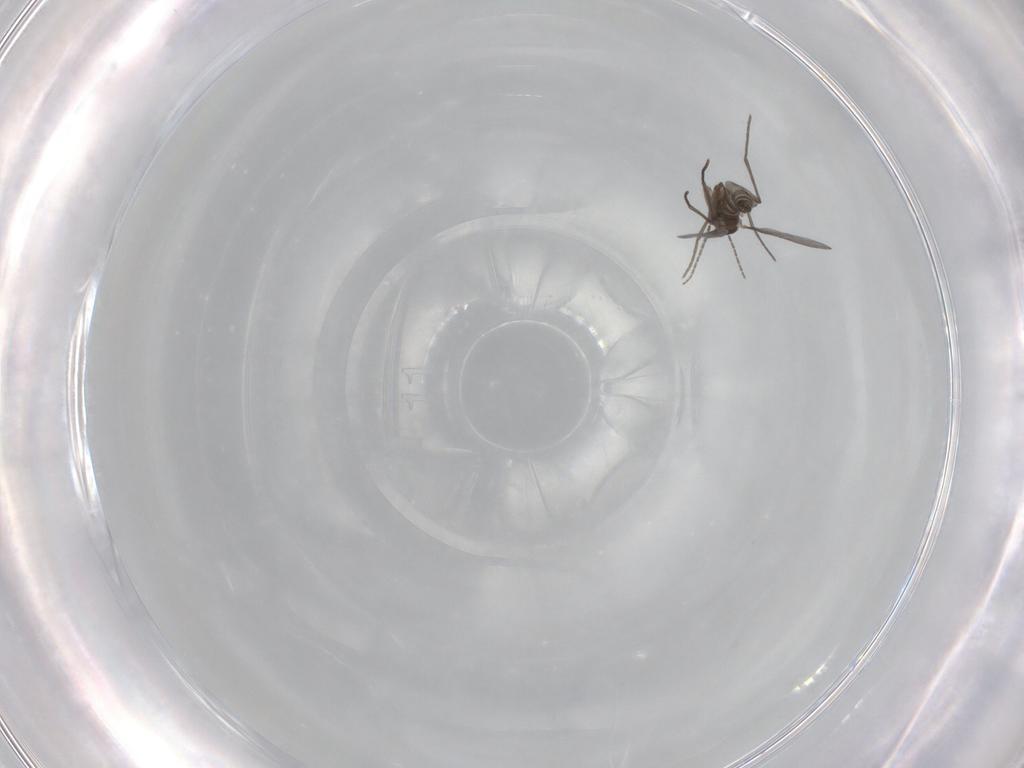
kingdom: Animalia
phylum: Arthropoda
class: Insecta
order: Diptera
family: Sciaridae
